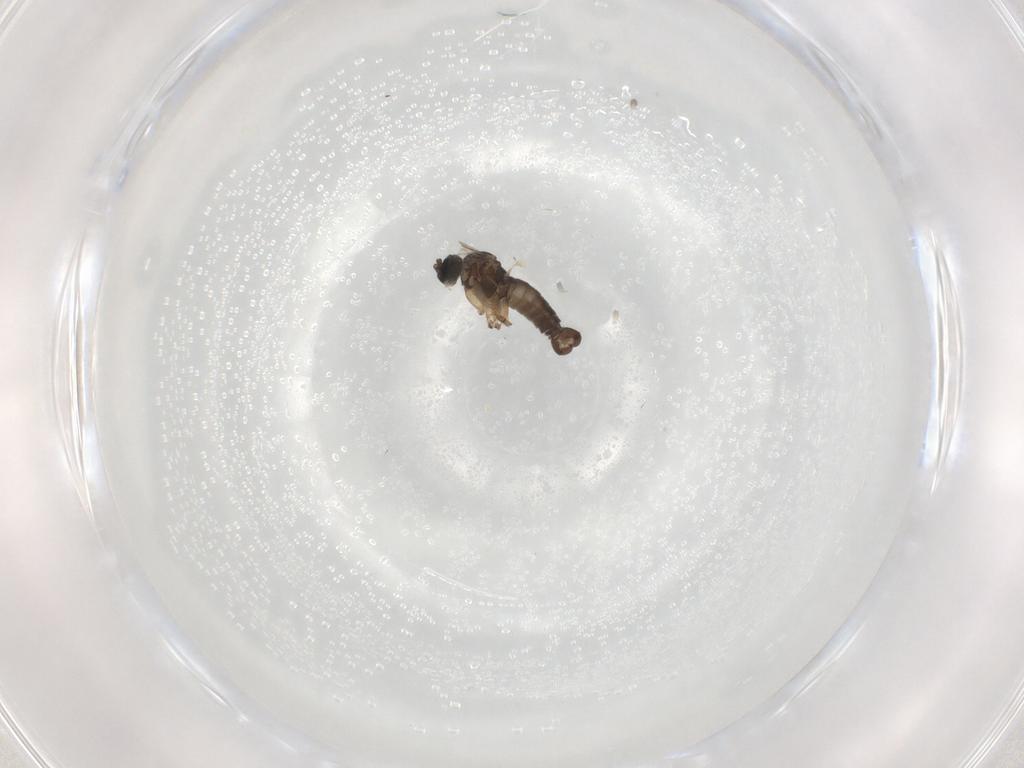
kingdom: Animalia
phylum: Arthropoda
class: Insecta
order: Diptera
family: Sciaridae
